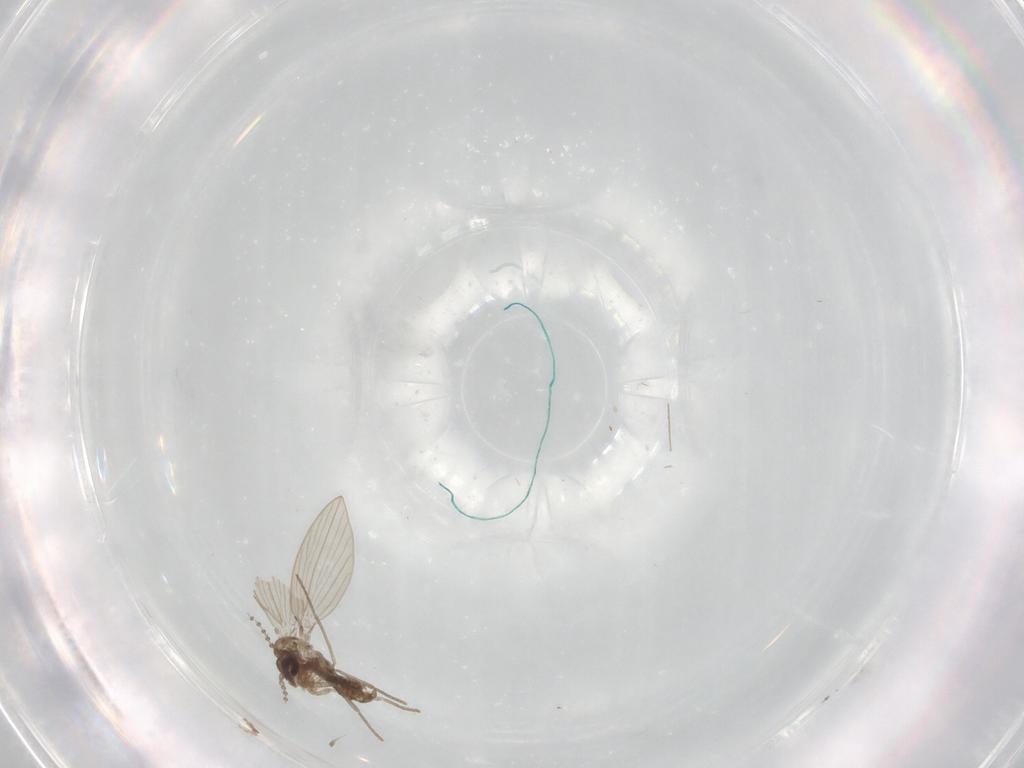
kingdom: Animalia
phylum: Arthropoda
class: Insecta
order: Diptera
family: Psychodidae
